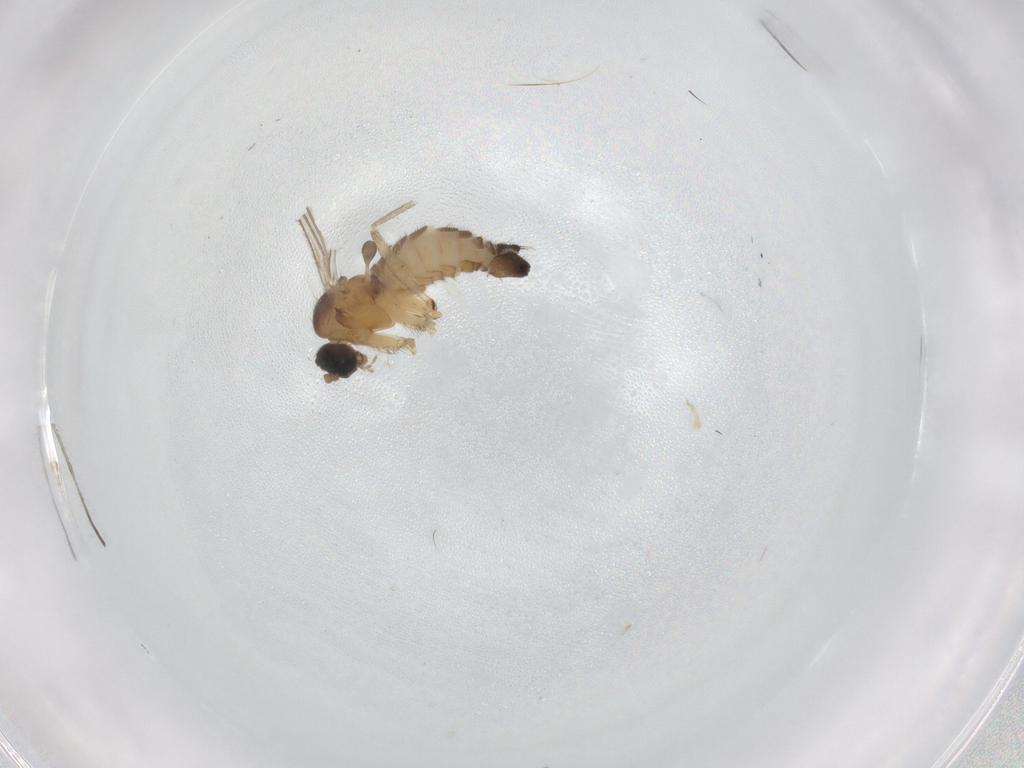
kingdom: Animalia
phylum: Arthropoda
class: Insecta
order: Diptera
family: Sciaridae
